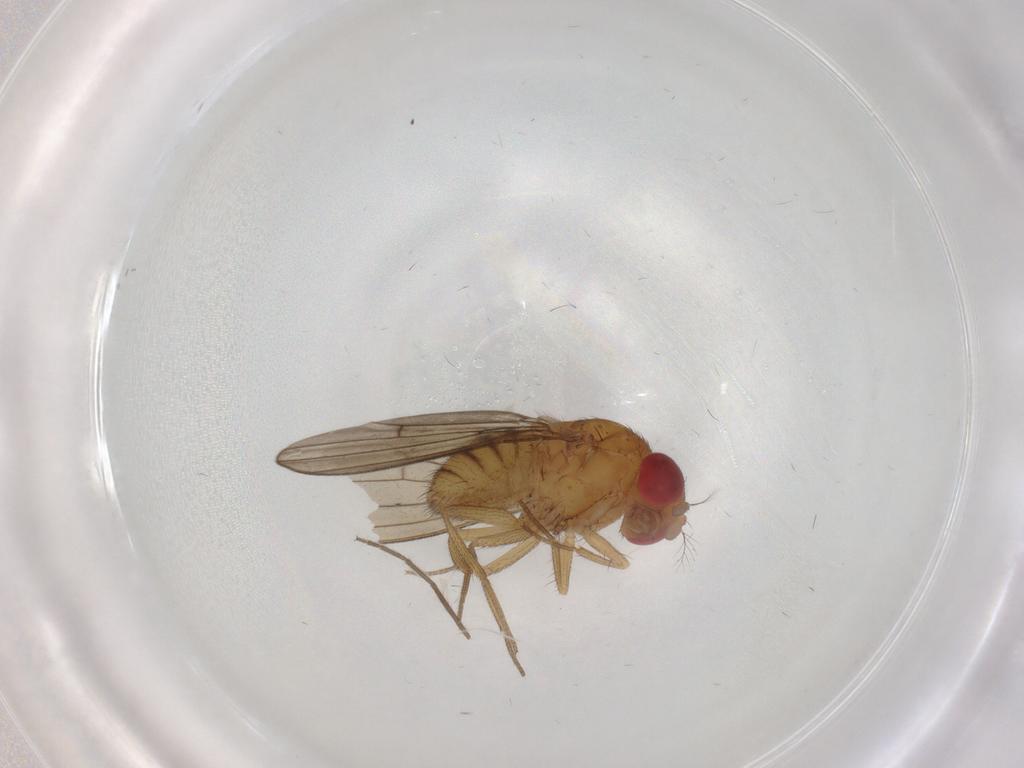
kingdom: Animalia
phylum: Arthropoda
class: Insecta
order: Diptera
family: Drosophilidae
